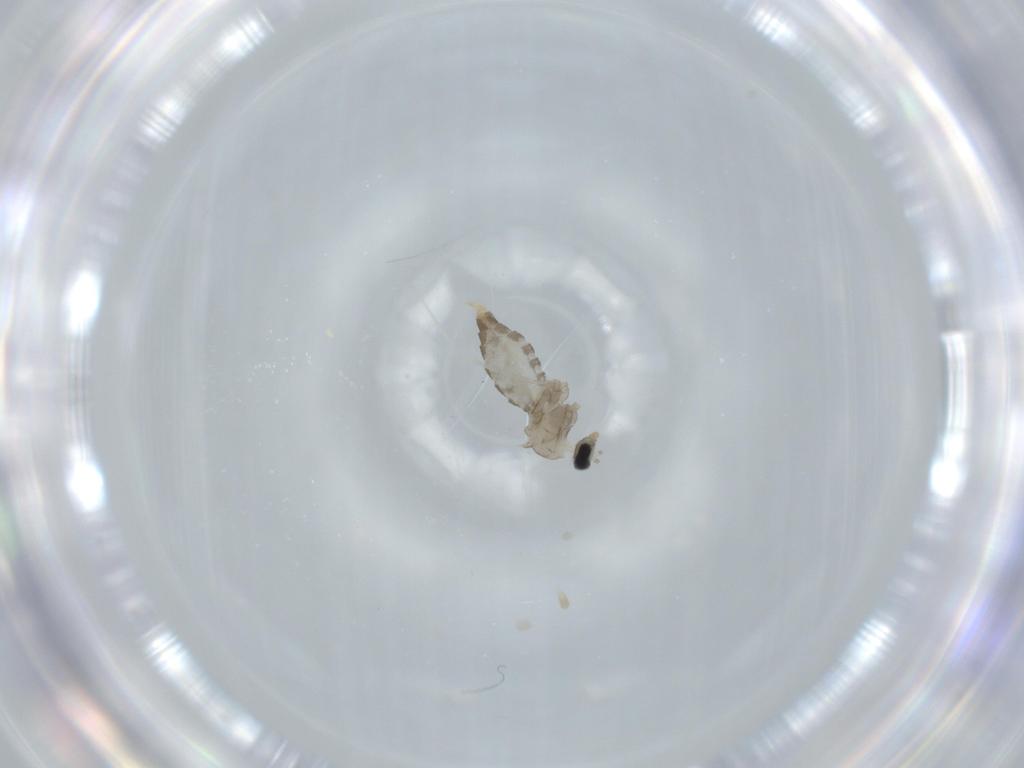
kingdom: Animalia
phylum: Arthropoda
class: Insecta
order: Diptera
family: Cecidomyiidae
